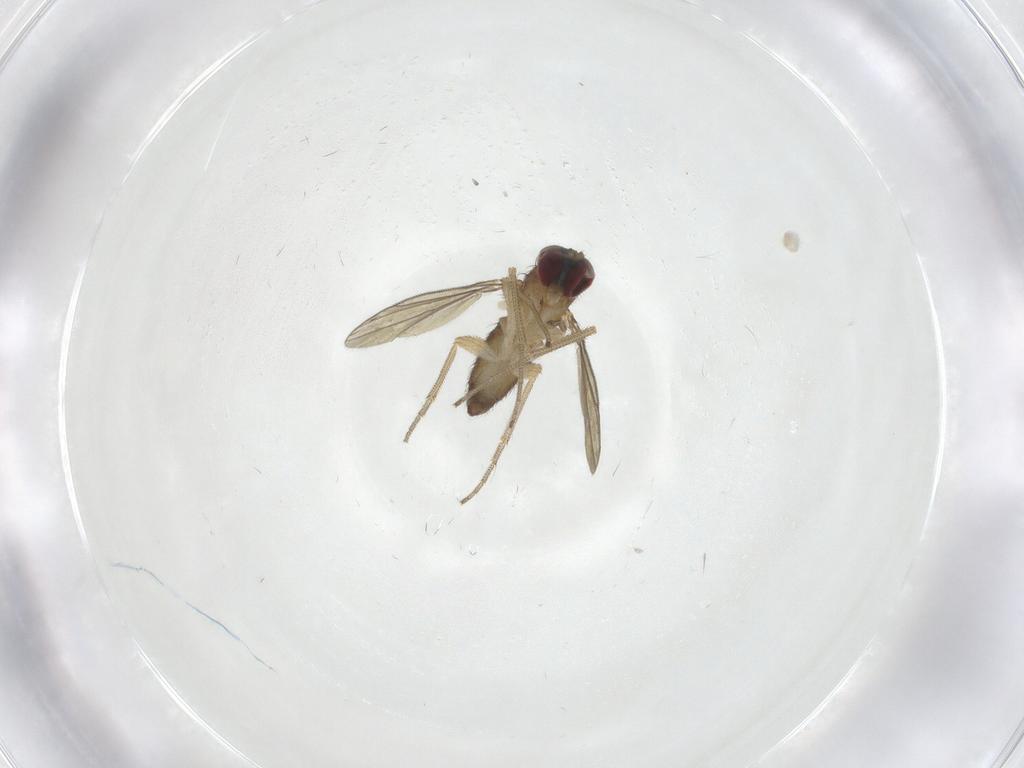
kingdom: Animalia
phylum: Arthropoda
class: Insecta
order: Diptera
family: Dolichopodidae
